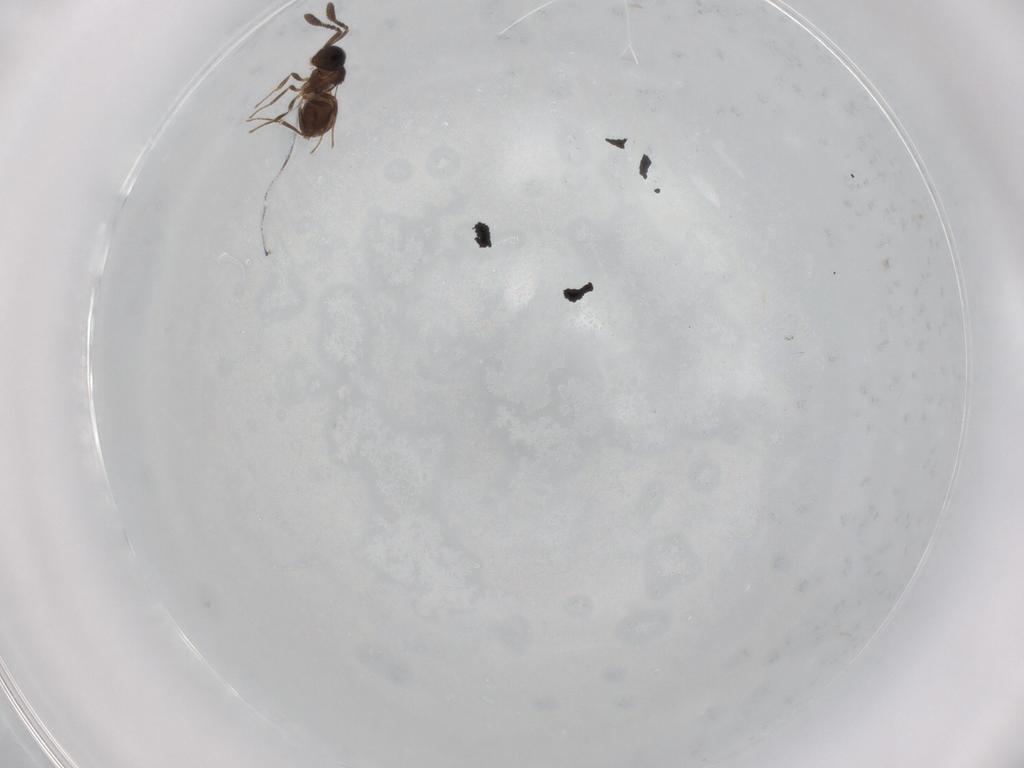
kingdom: Animalia
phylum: Arthropoda
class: Insecta
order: Hymenoptera
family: Scelionidae
